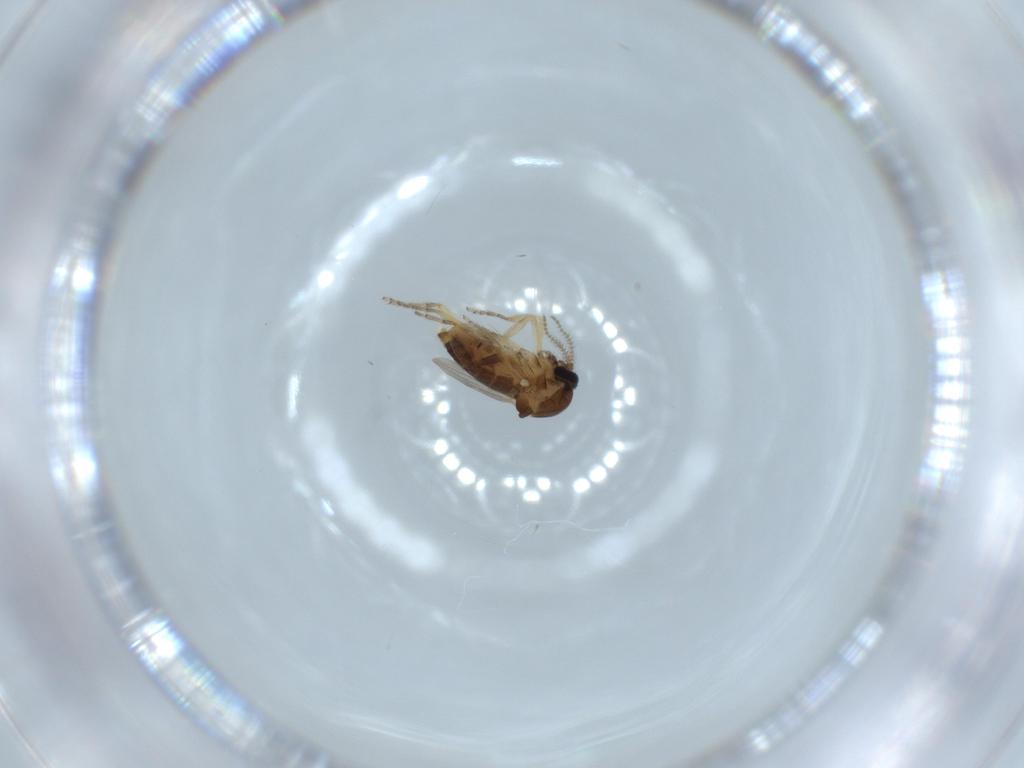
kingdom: Animalia
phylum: Arthropoda
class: Insecta
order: Diptera
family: Ceratopogonidae
